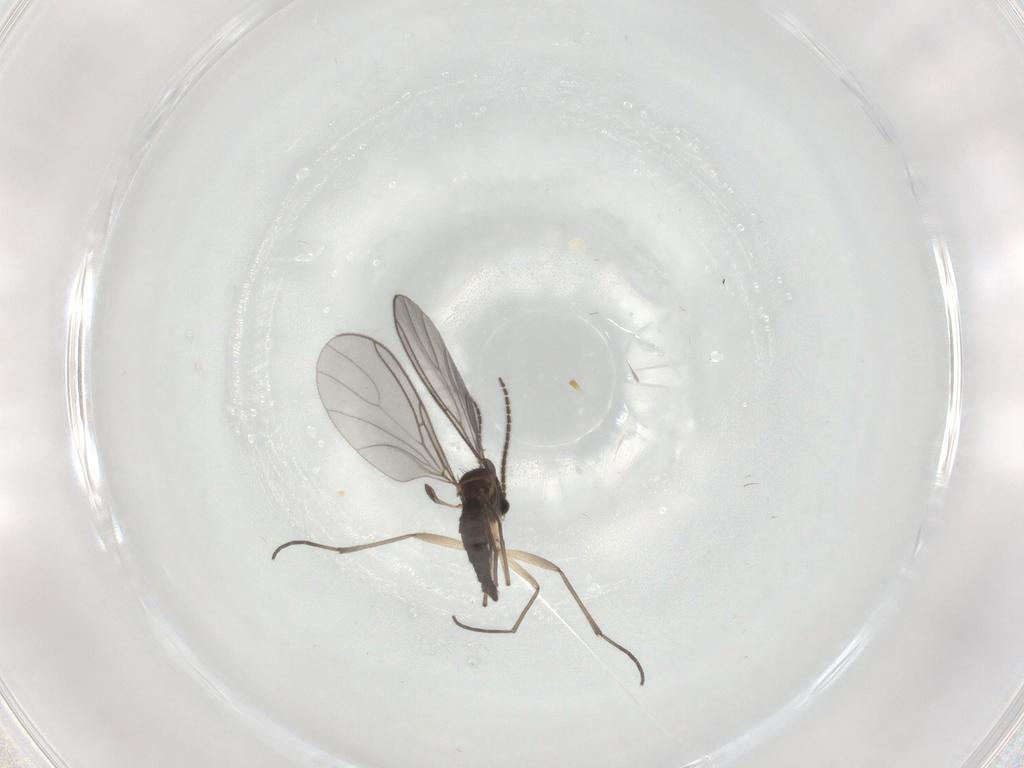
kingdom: Animalia
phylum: Arthropoda
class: Insecta
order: Diptera
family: Sciaridae
